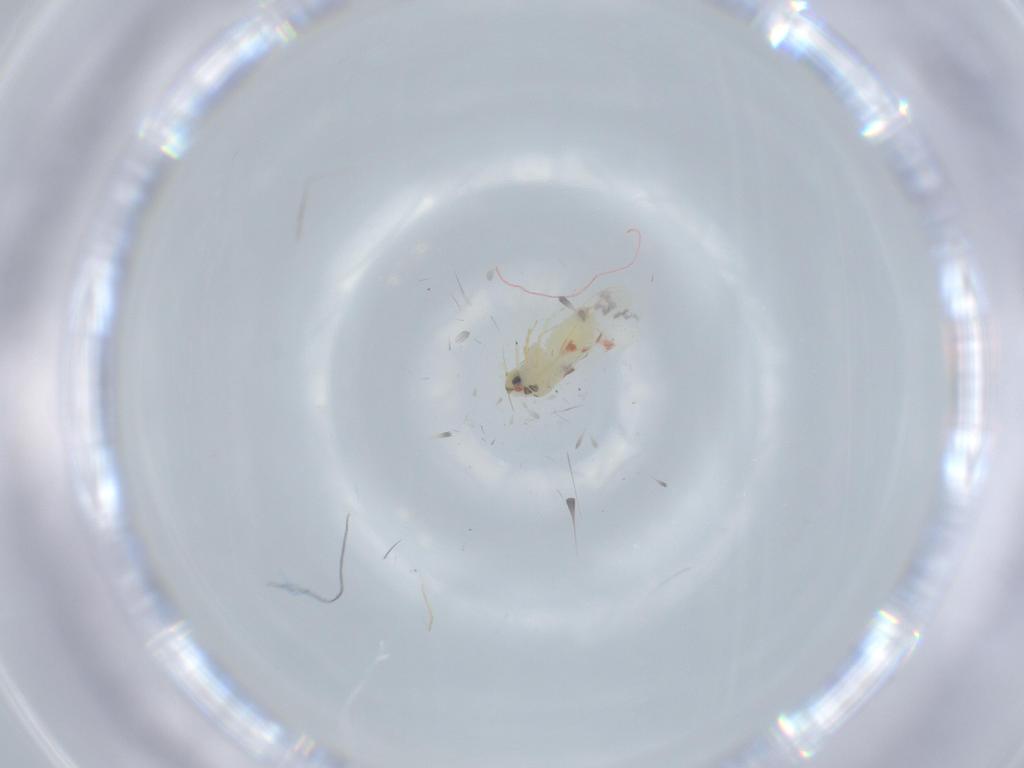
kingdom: Animalia
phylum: Arthropoda
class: Insecta
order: Hemiptera
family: Aleyrodidae
